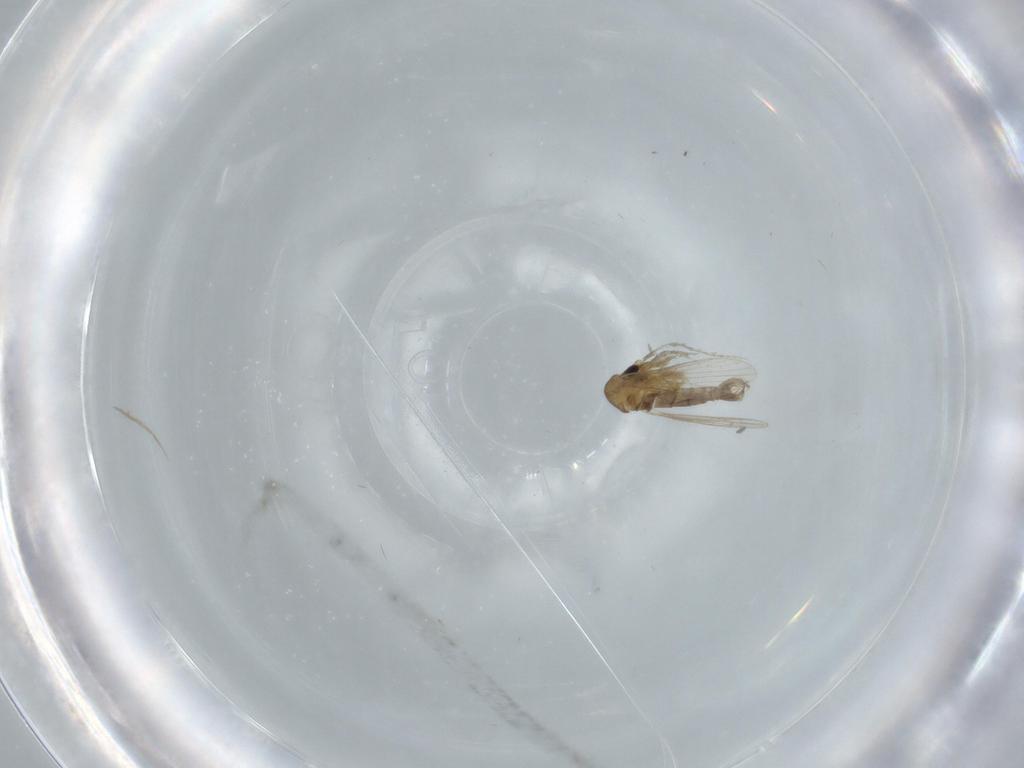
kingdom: Animalia
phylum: Arthropoda
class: Insecta
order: Diptera
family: Psychodidae
